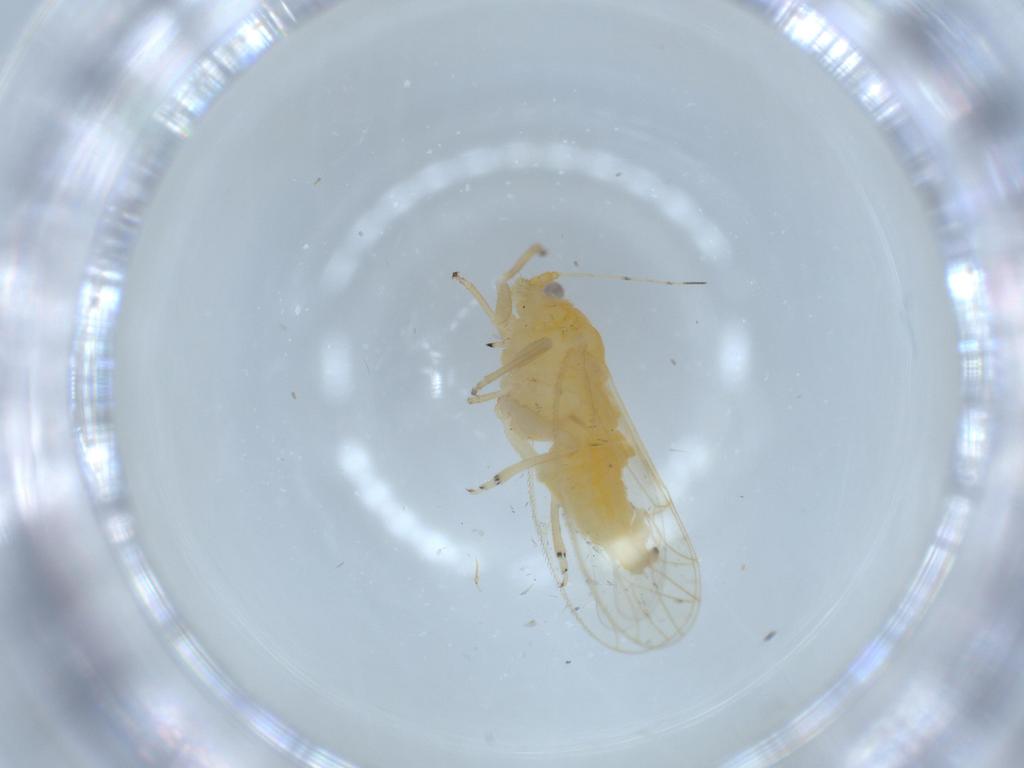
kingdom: Animalia
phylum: Arthropoda
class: Insecta
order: Hemiptera
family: Psyllidae
